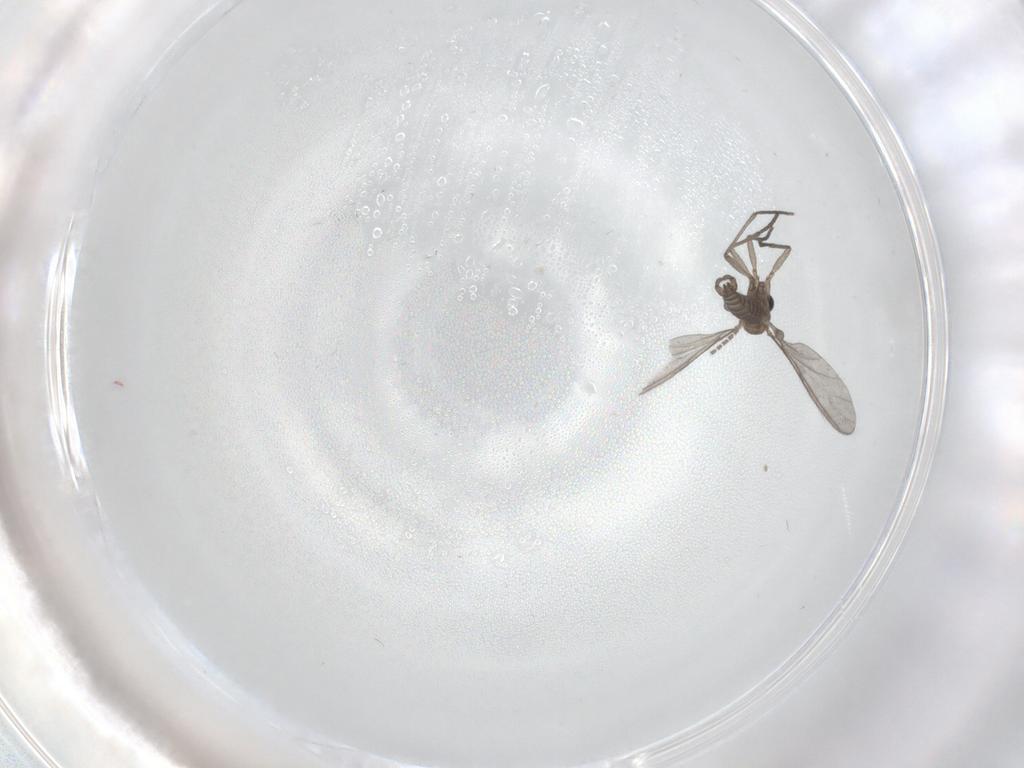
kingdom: Animalia
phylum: Arthropoda
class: Insecta
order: Diptera
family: Sciaridae
